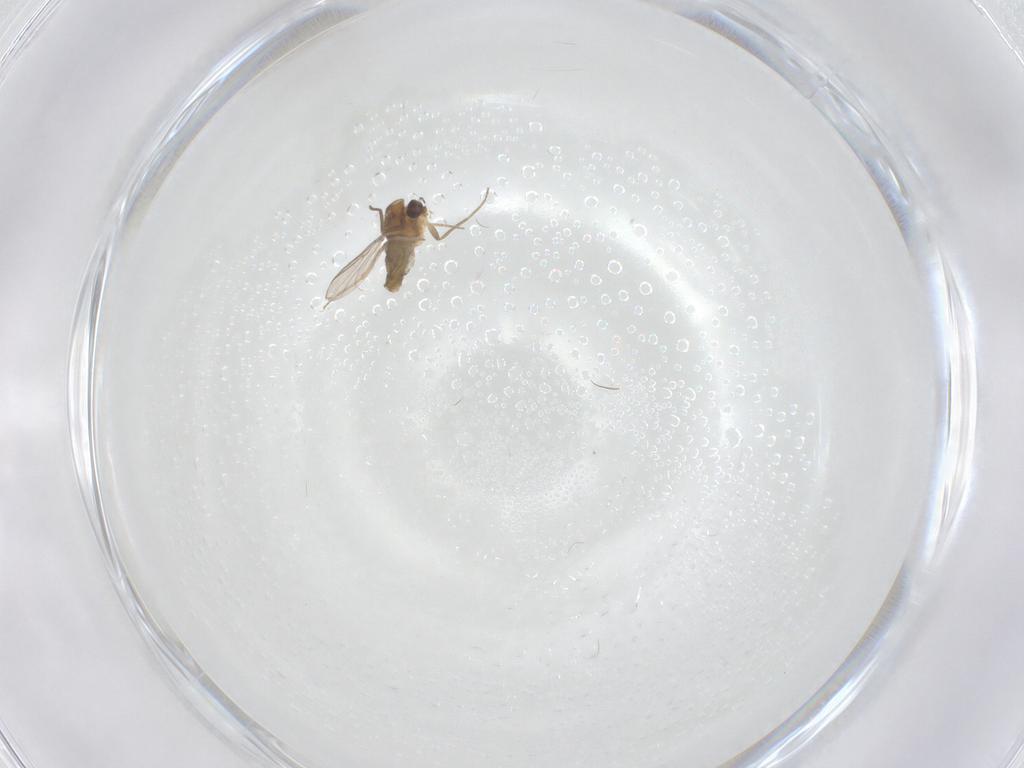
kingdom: Animalia
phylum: Arthropoda
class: Insecta
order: Diptera
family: Chironomidae
